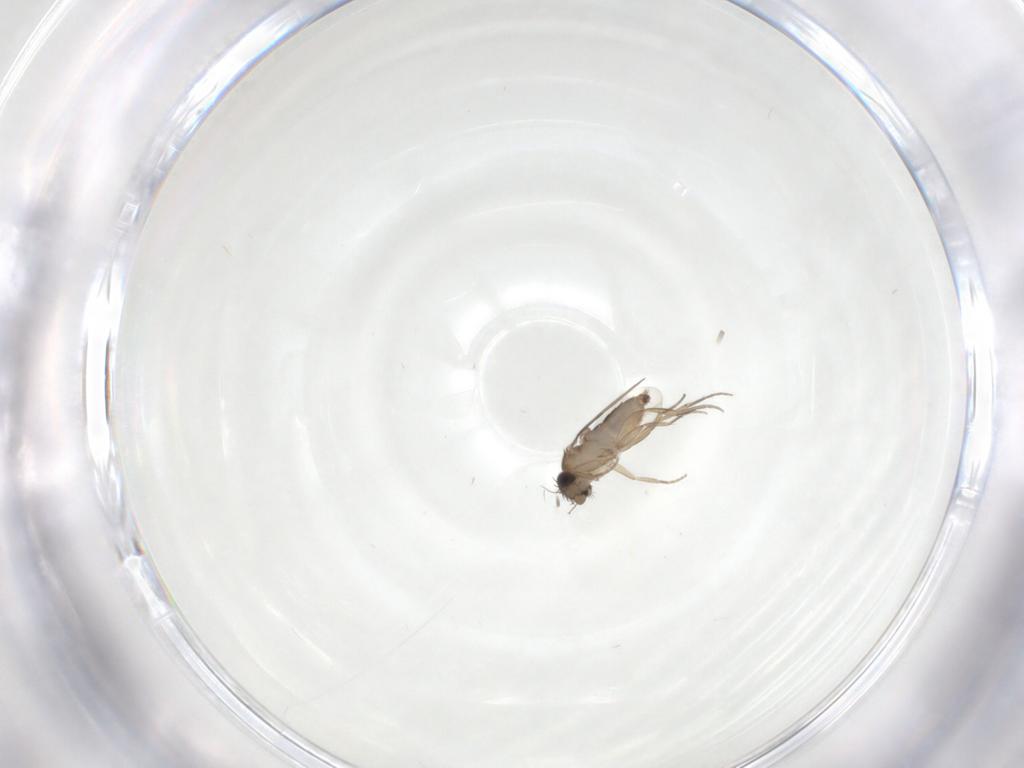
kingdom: Animalia
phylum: Arthropoda
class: Insecta
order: Diptera
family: Phoridae
